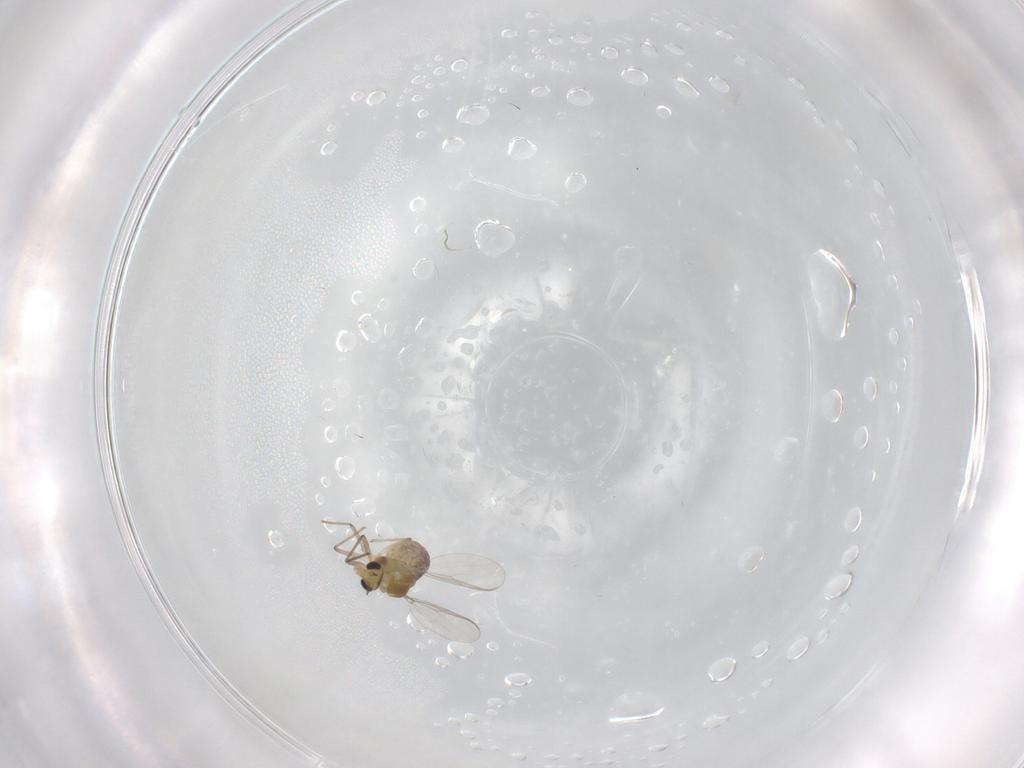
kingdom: Animalia
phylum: Arthropoda
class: Insecta
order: Diptera
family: Chironomidae
